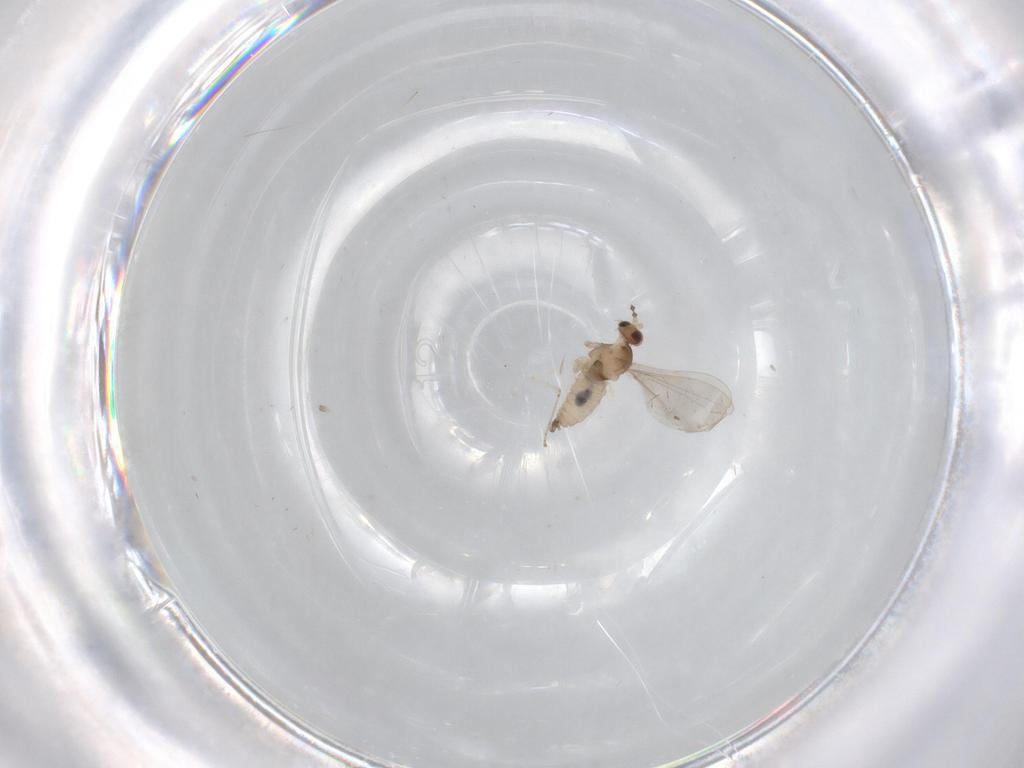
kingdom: Animalia
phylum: Arthropoda
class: Insecta
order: Diptera
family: Cecidomyiidae
